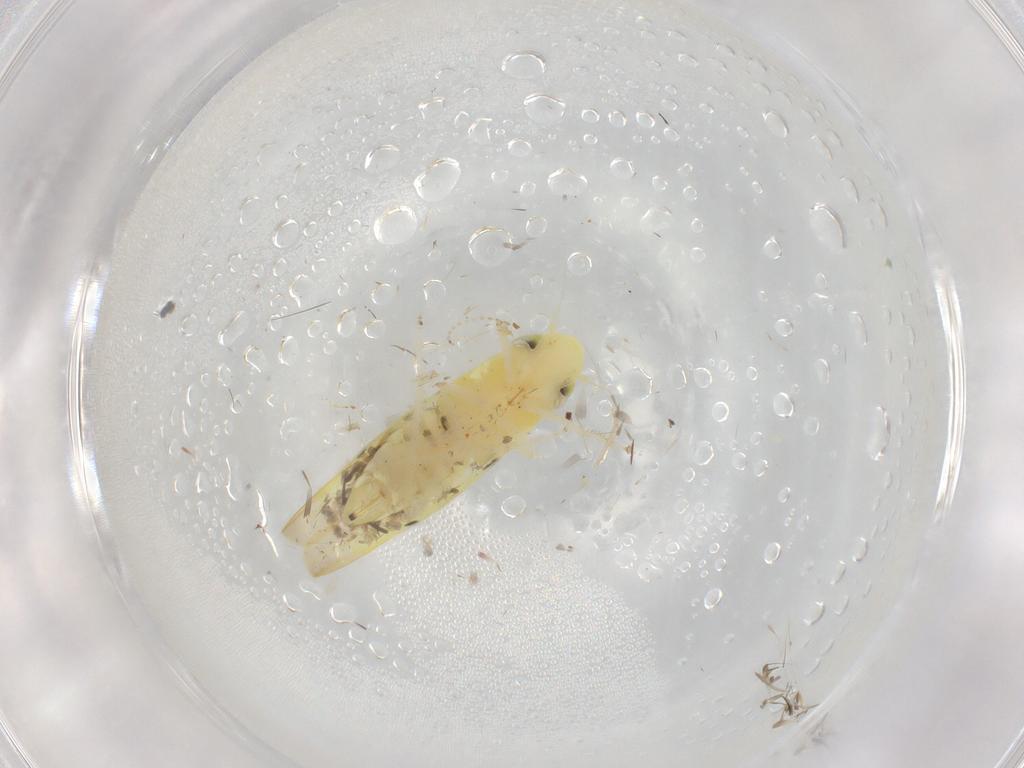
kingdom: Animalia
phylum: Arthropoda
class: Insecta
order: Hemiptera
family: Cicadellidae
